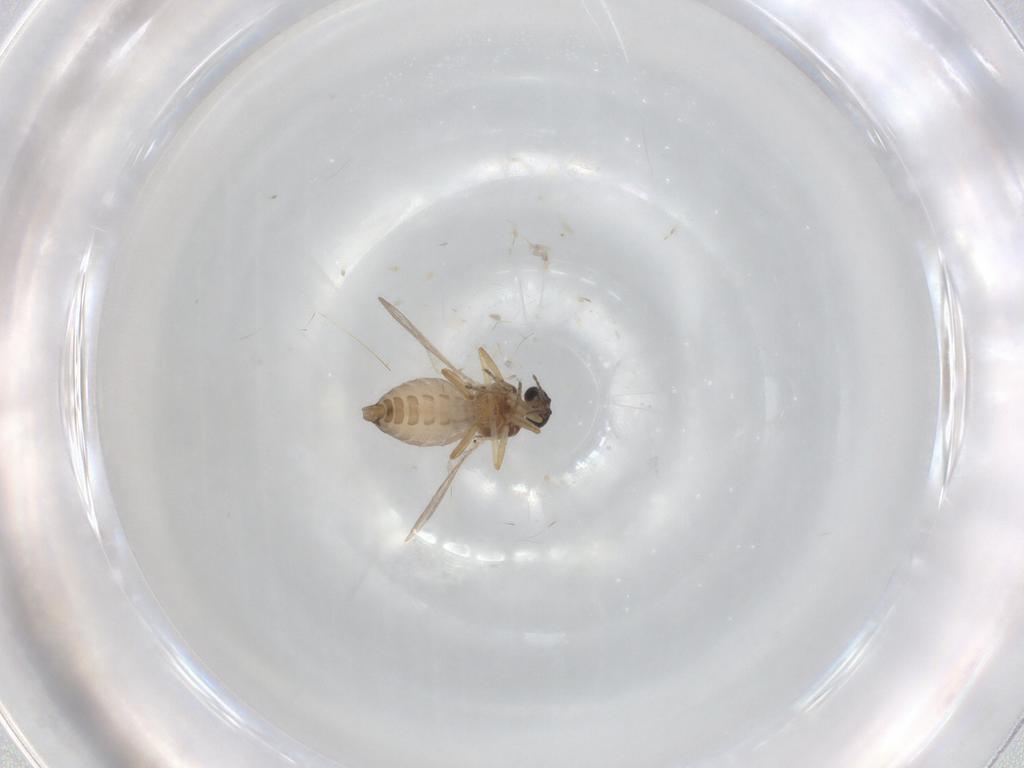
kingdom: Animalia
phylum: Arthropoda
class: Insecta
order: Diptera
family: Ceratopogonidae
